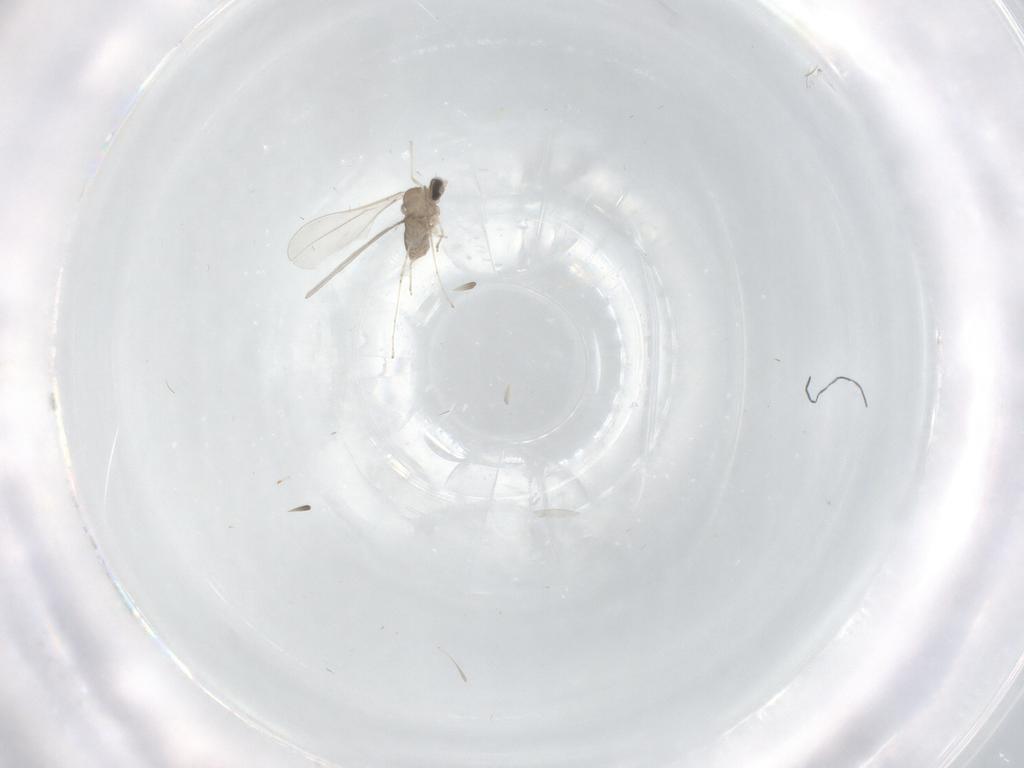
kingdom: Animalia
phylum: Arthropoda
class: Insecta
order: Diptera
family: Cecidomyiidae
